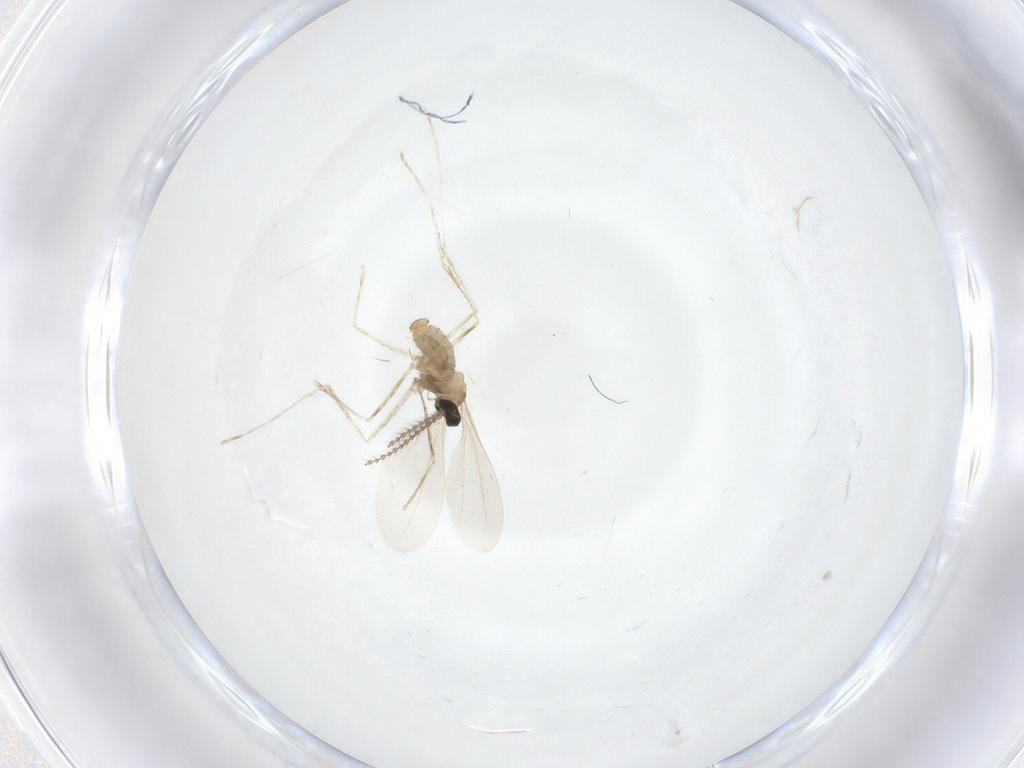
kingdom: Animalia
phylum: Arthropoda
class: Insecta
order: Diptera
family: Cecidomyiidae
